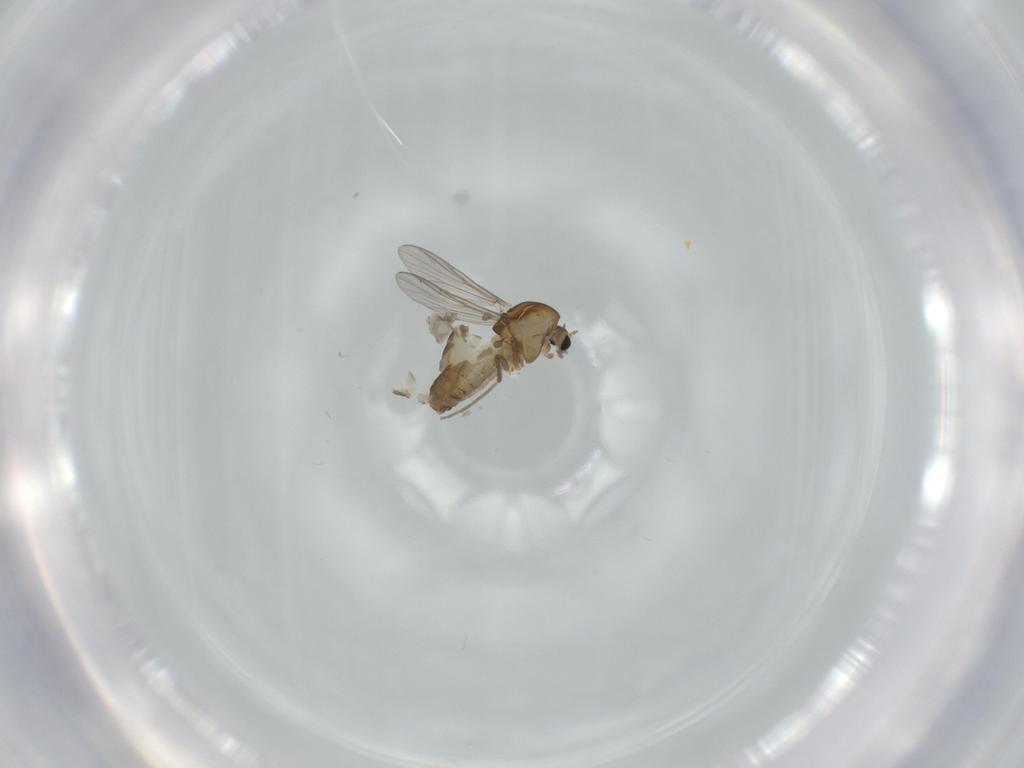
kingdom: Animalia
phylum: Arthropoda
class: Insecta
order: Diptera
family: Chironomidae
